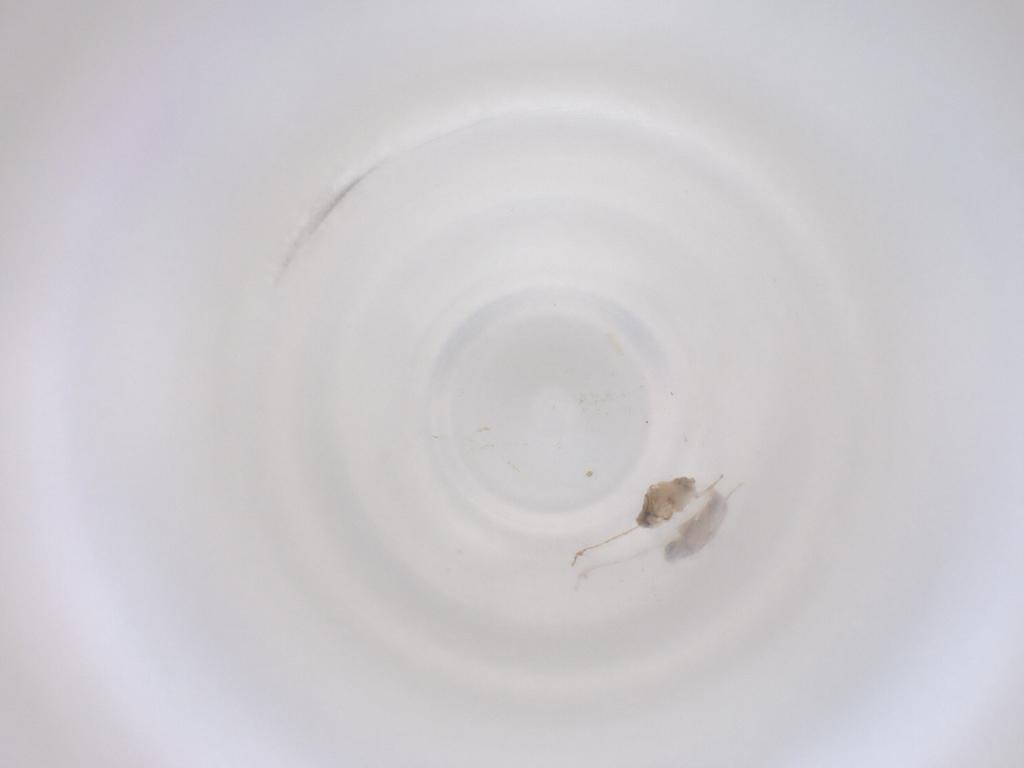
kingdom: Animalia
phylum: Arthropoda
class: Insecta
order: Diptera
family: Cecidomyiidae
